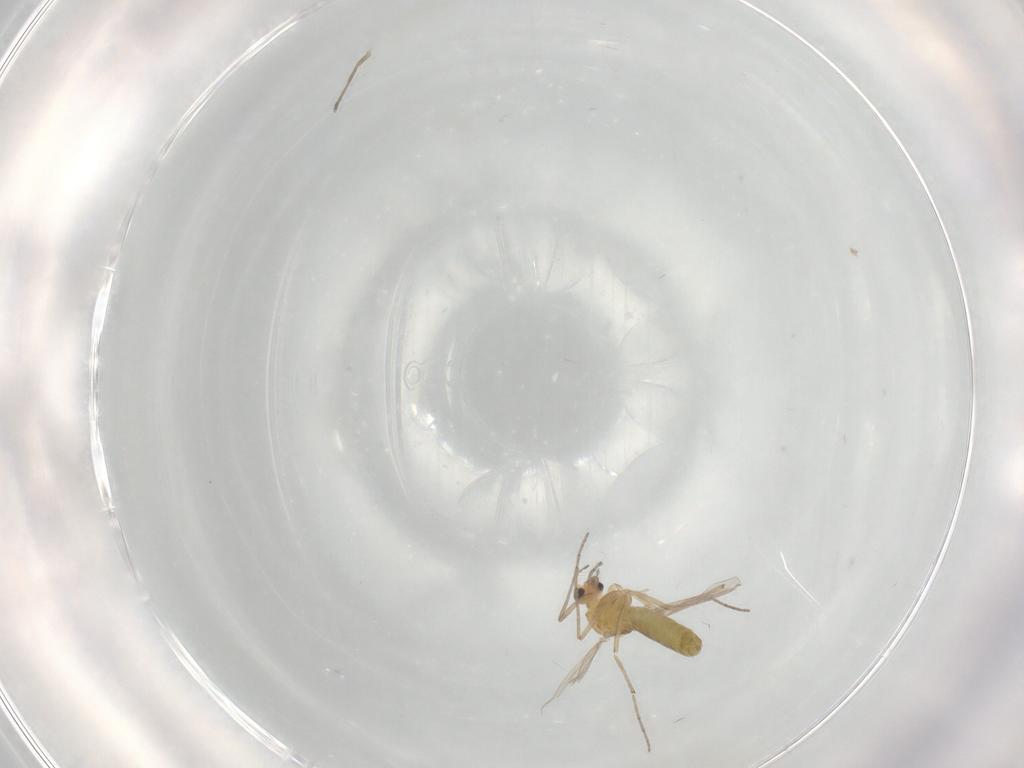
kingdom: Animalia
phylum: Arthropoda
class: Insecta
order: Diptera
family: Chironomidae
